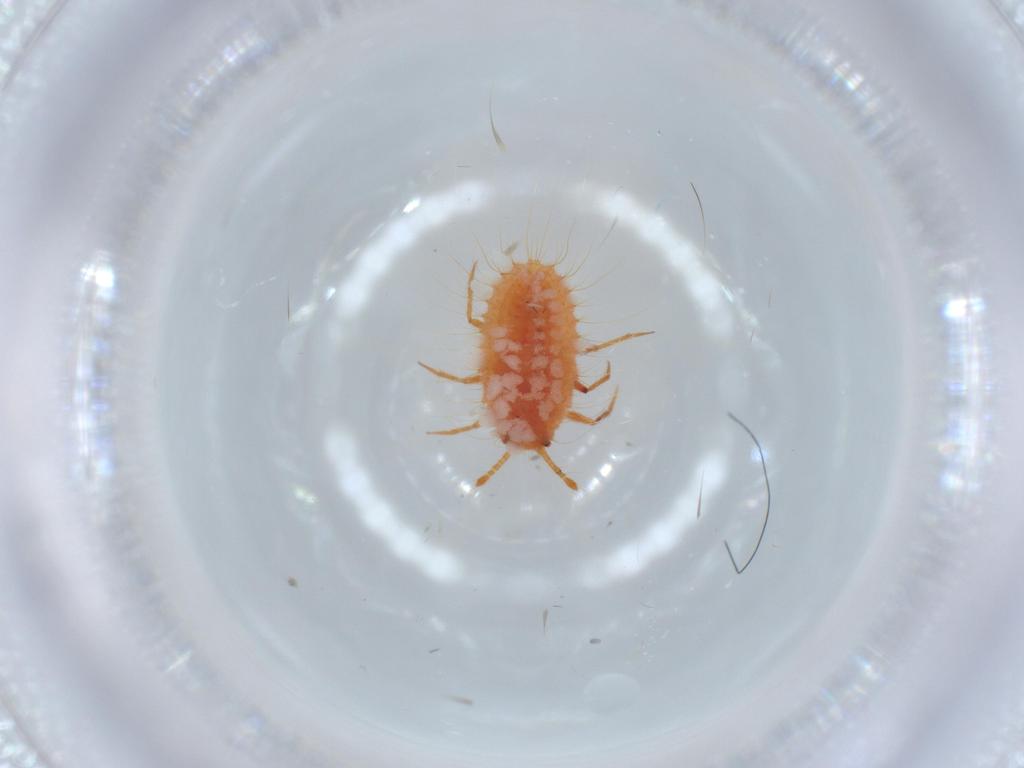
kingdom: Animalia
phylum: Arthropoda
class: Insecta
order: Hemiptera
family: Coccoidea_incertae_sedis
